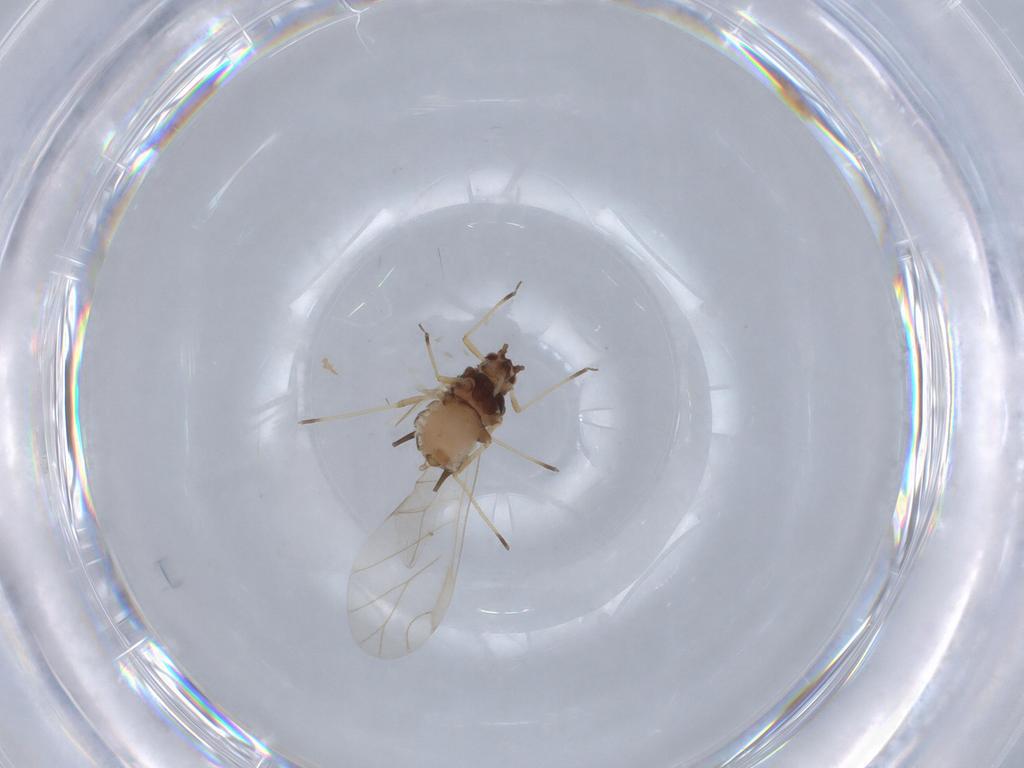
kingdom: Animalia
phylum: Arthropoda
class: Insecta
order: Hemiptera
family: Aphididae
